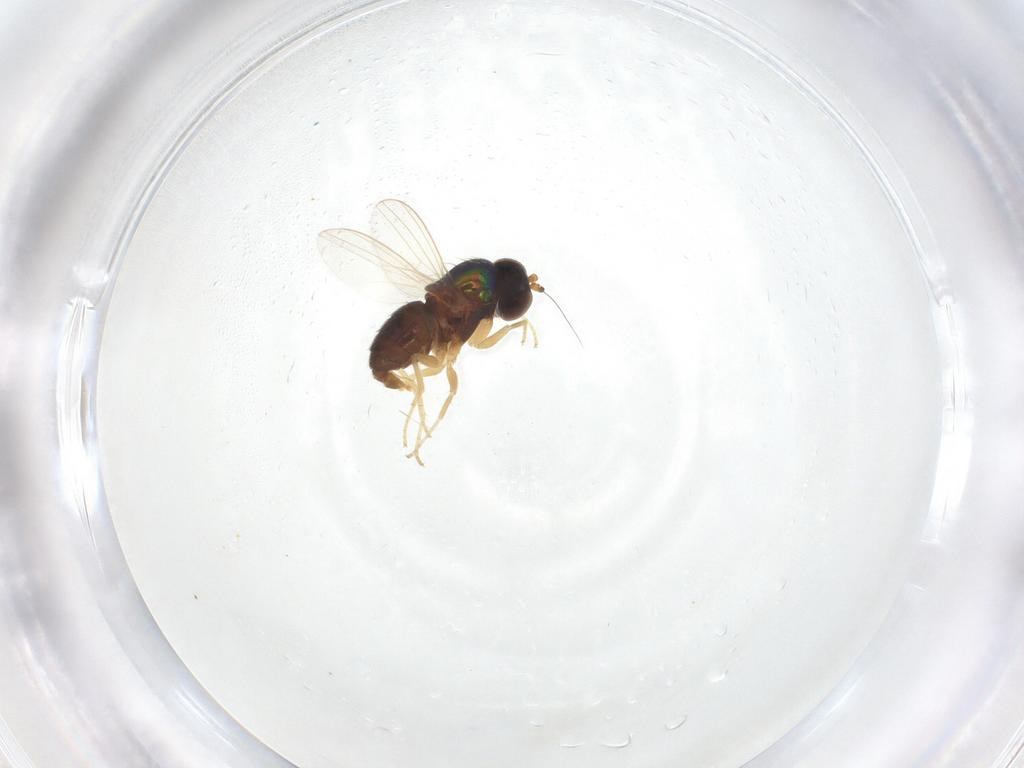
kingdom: Animalia
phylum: Arthropoda
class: Insecta
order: Diptera
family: Dolichopodidae
